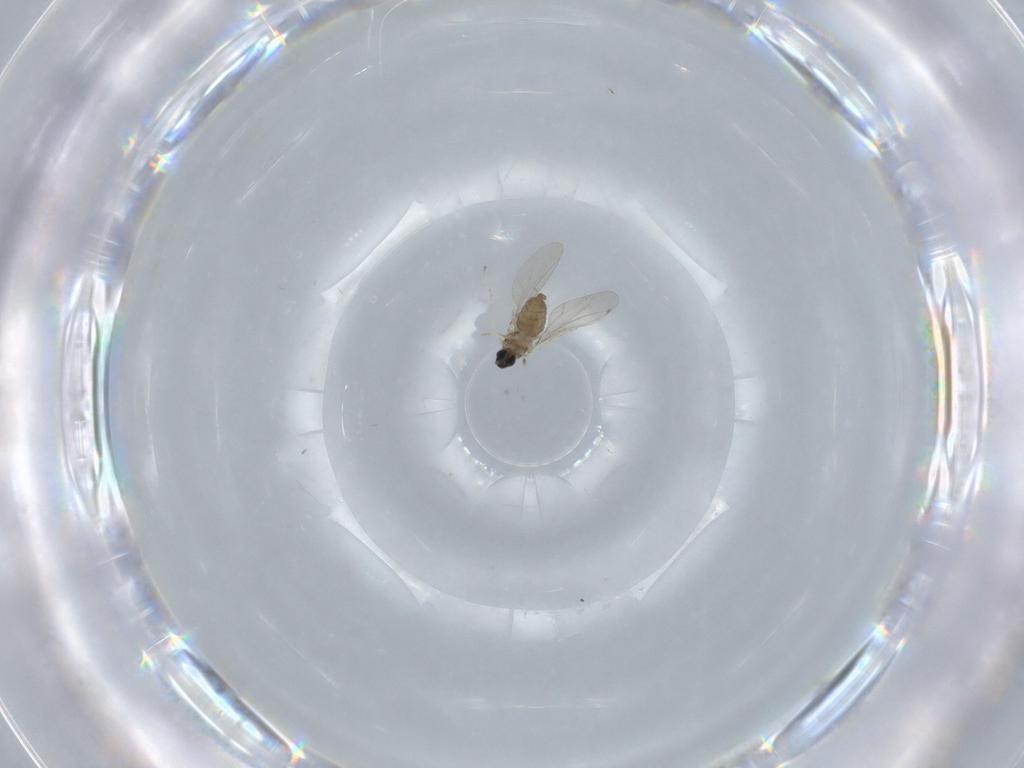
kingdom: Animalia
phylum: Arthropoda
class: Insecta
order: Diptera
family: Cecidomyiidae
